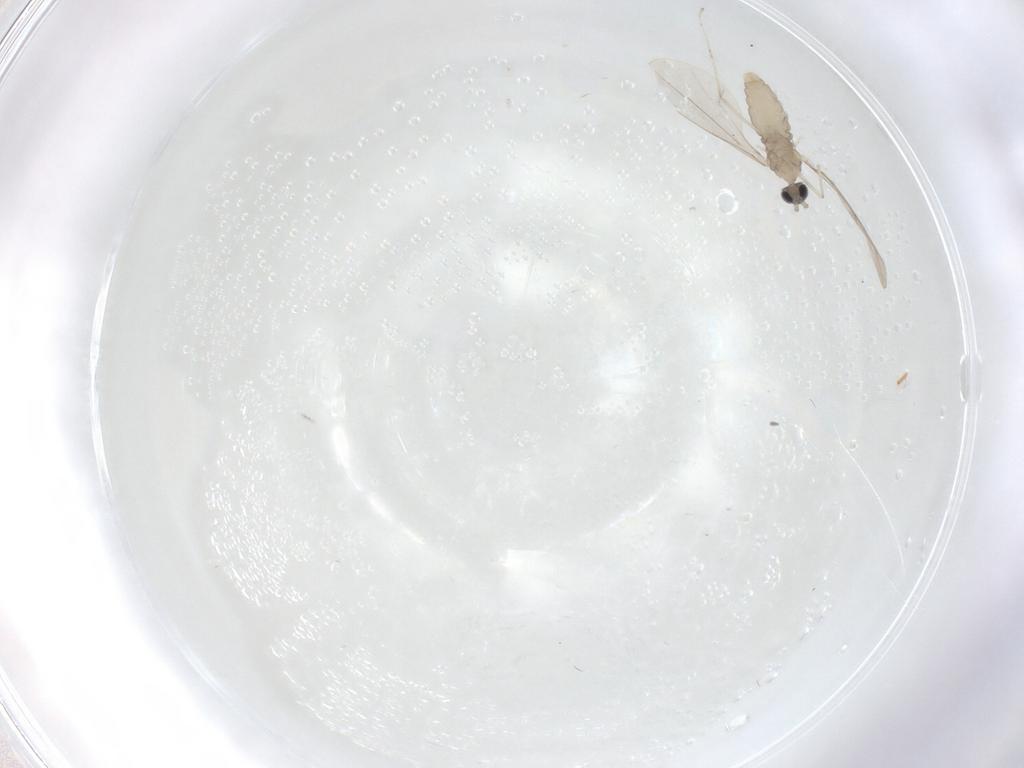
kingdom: Animalia
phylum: Arthropoda
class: Insecta
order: Diptera
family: Cecidomyiidae
